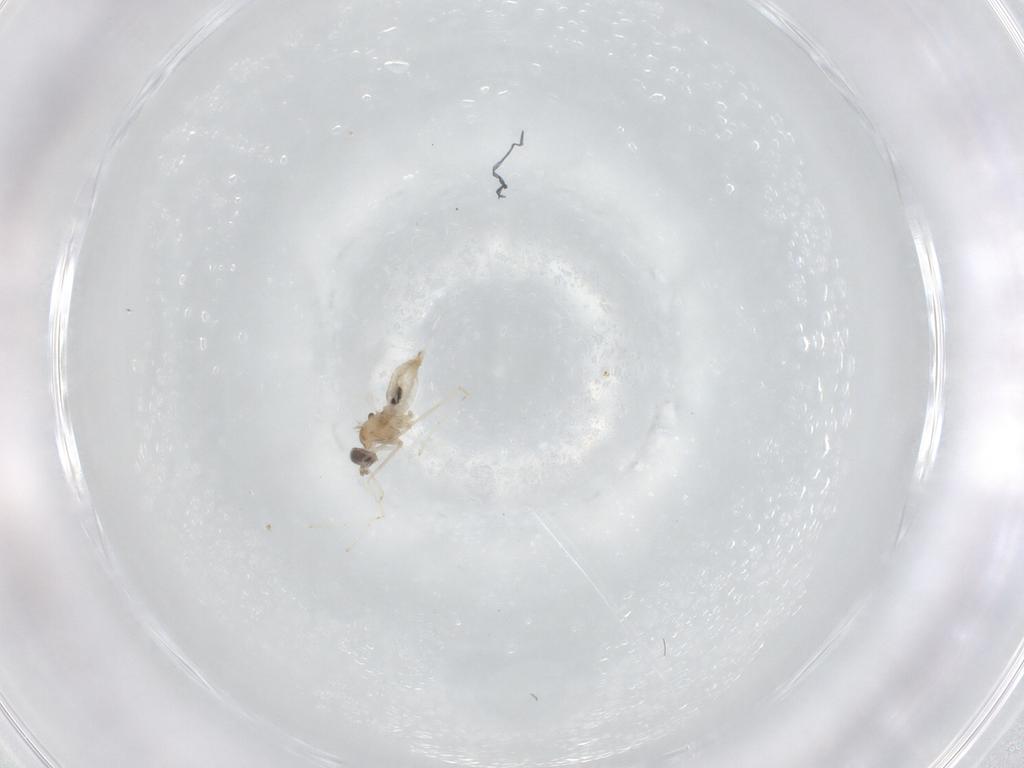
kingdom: Animalia
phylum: Arthropoda
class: Insecta
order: Diptera
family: Cecidomyiidae
